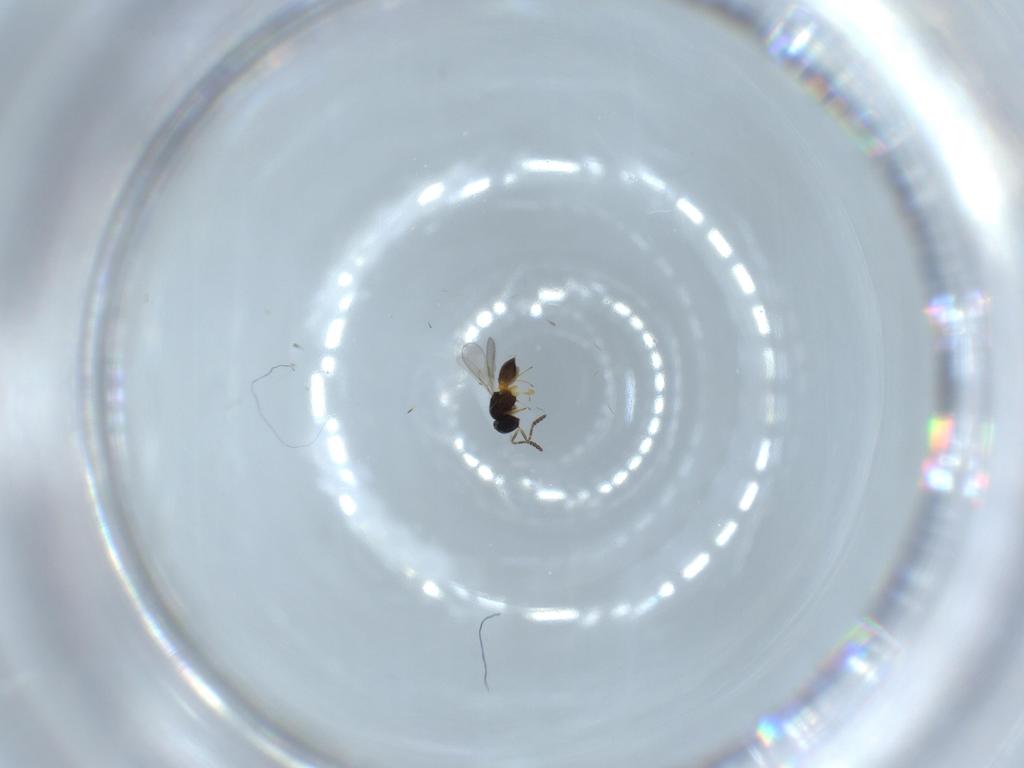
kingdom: Animalia
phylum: Arthropoda
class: Insecta
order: Hymenoptera
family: Scelionidae
